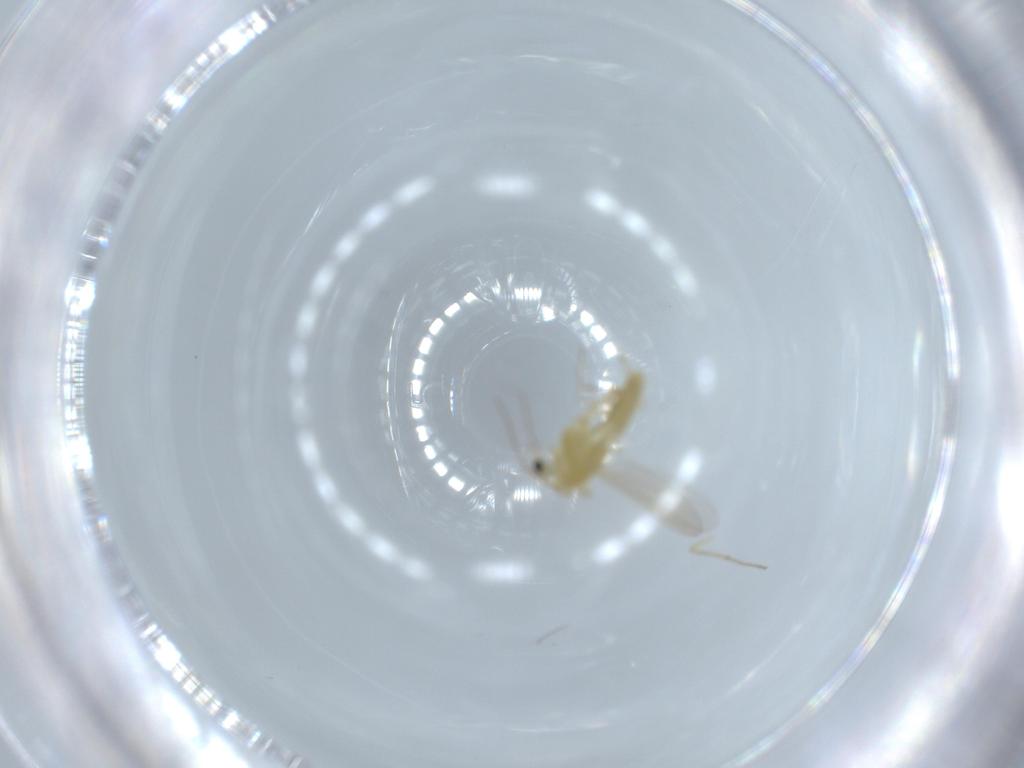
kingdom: Animalia
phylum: Arthropoda
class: Insecta
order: Diptera
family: Chironomidae
